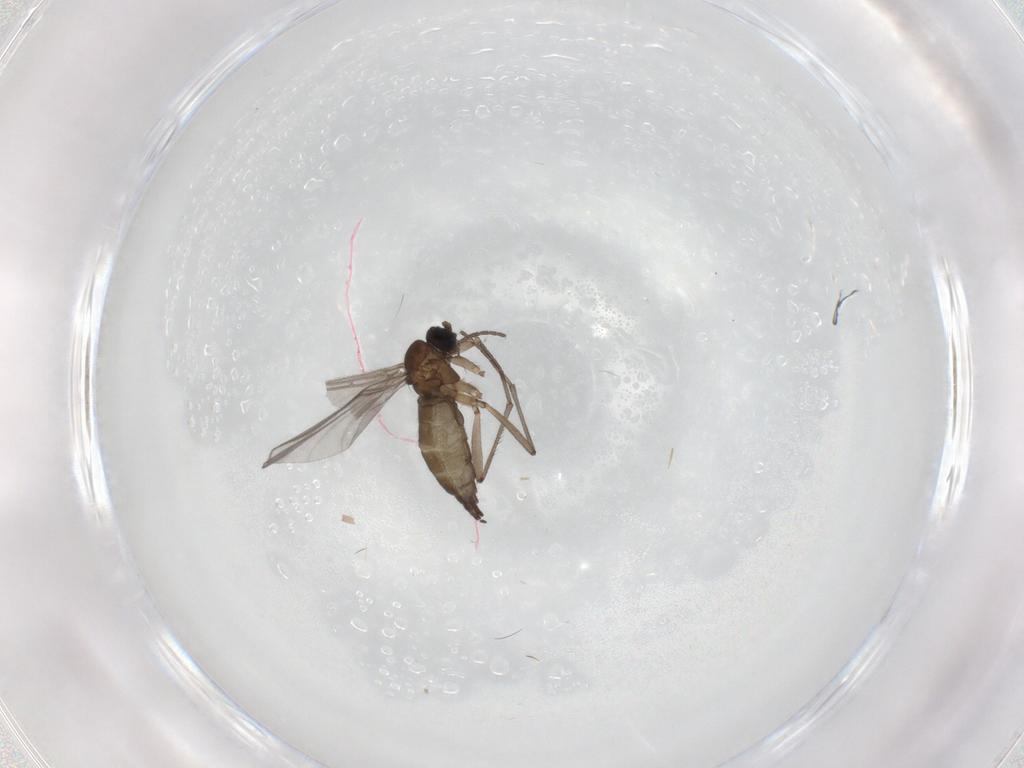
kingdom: Animalia
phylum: Arthropoda
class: Insecta
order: Diptera
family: Sciaridae
